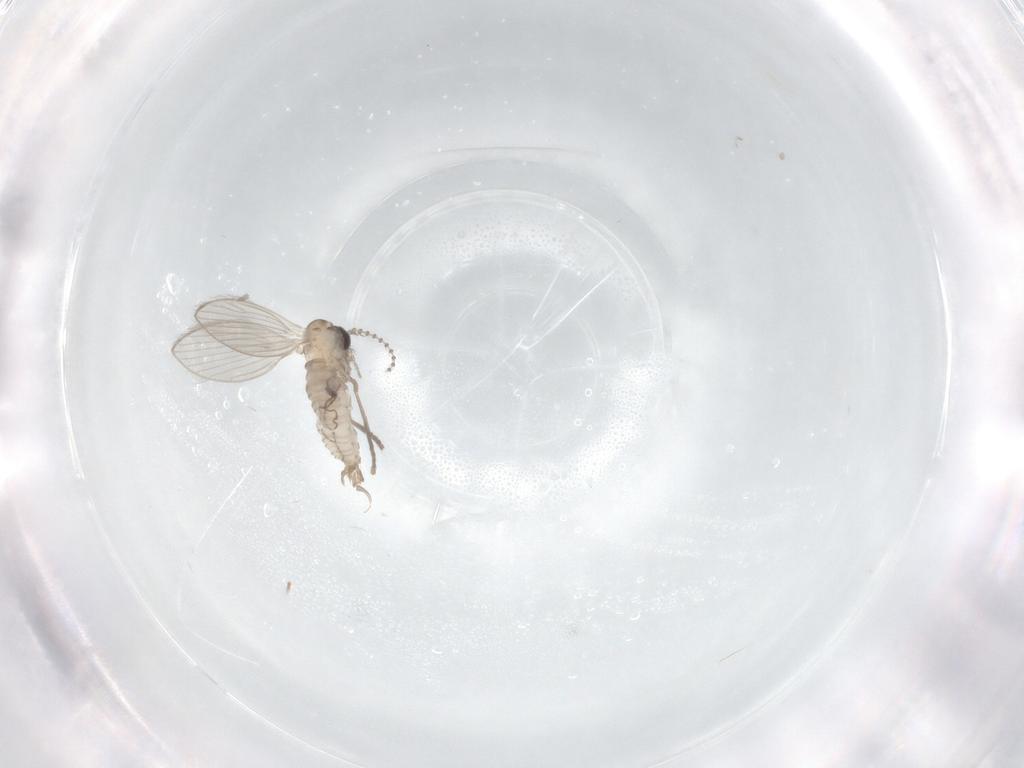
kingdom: Animalia
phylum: Arthropoda
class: Insecta
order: Diptera
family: Psychodidae
